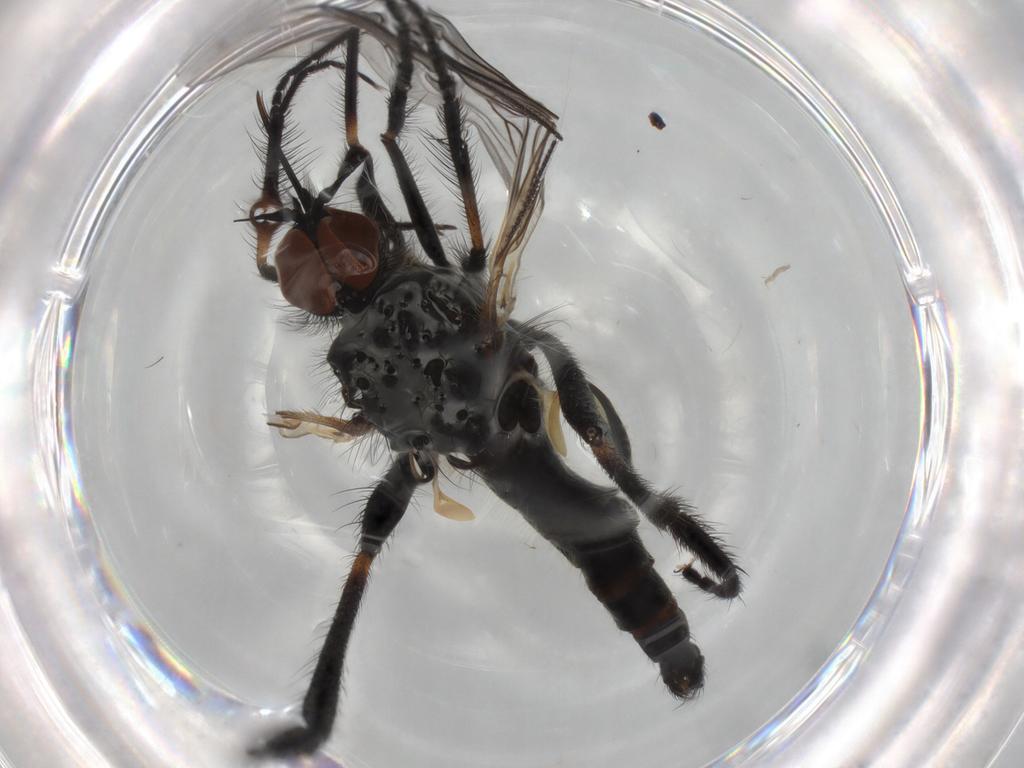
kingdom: Animalia
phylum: Arthropoda
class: Insecta
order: Diptera
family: Empididae
